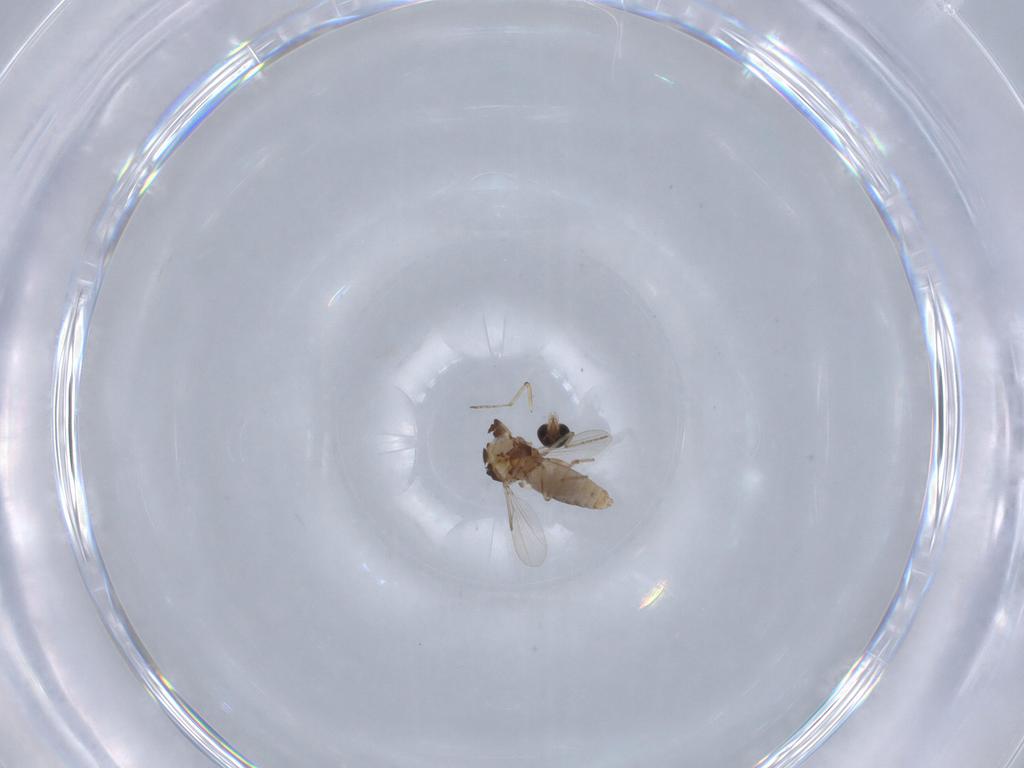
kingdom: Animalia
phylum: Arthropoda
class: Insecta
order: Diptera
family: Ceratopogonidae
